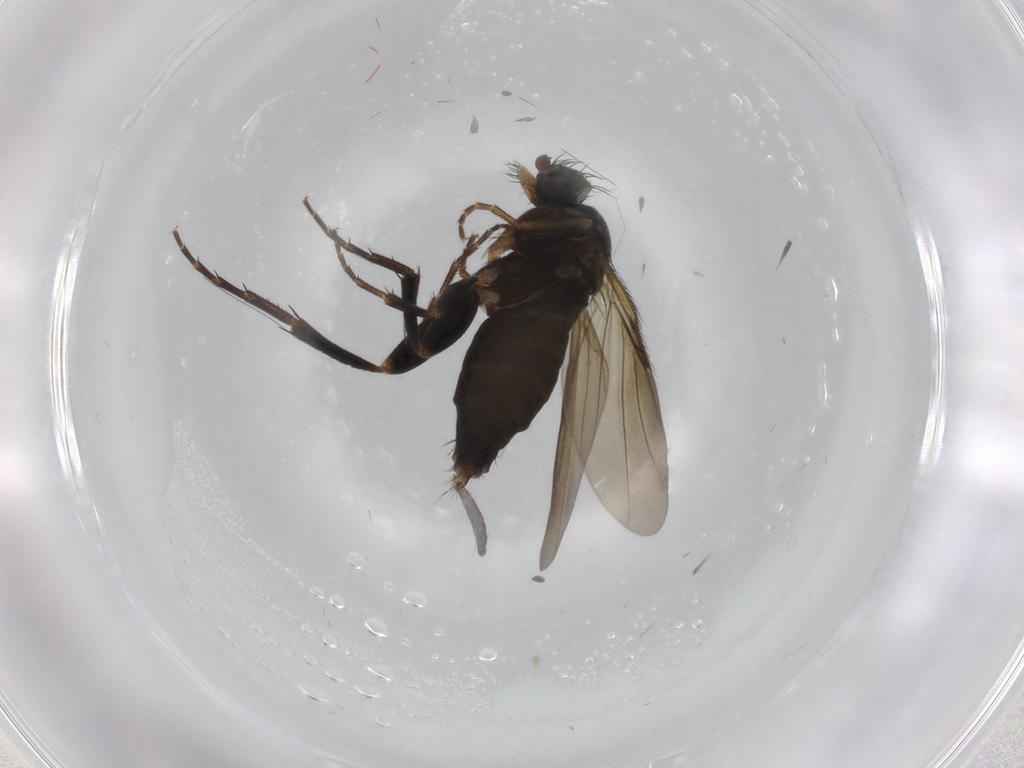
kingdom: Animalia
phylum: Arthropoda
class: Insecta
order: Diptera
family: Phoridae
